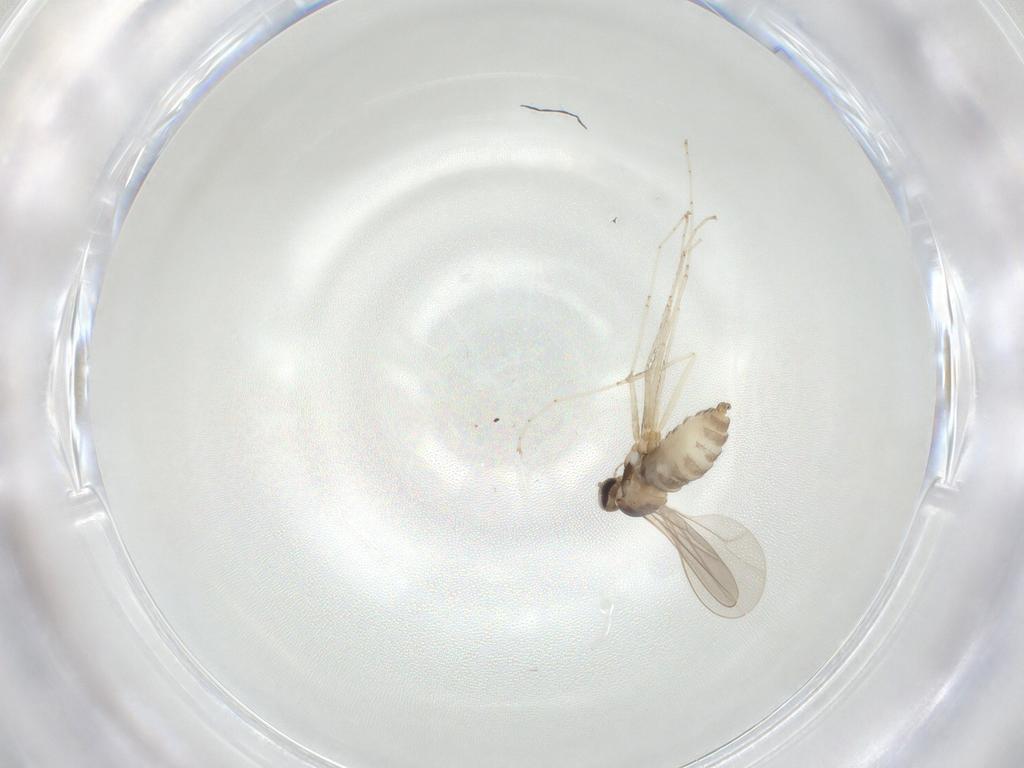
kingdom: Animalia
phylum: Arthropoda
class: Insecta
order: Diptera
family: Cecidomyiidae
